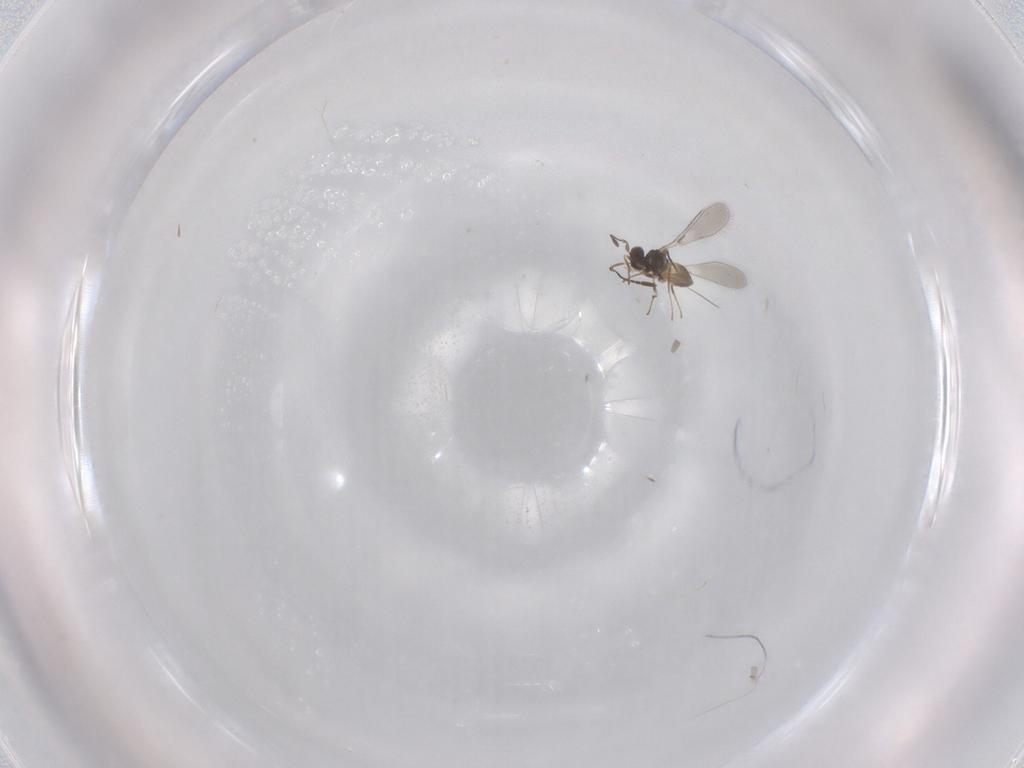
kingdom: Animalia
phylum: Arthropoda
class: Insecta
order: Hymenoptera
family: Mymaridae
